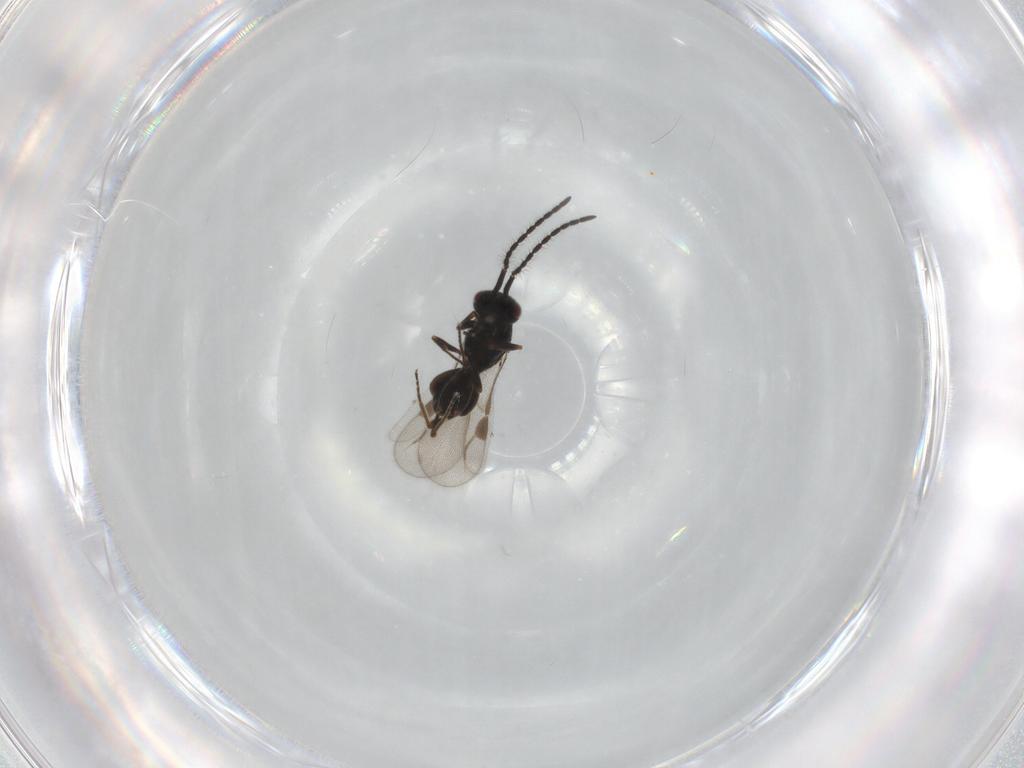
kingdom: Animalia
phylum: Arthropoda
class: Insecta
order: Hymenoptera
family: Megaspilidae
